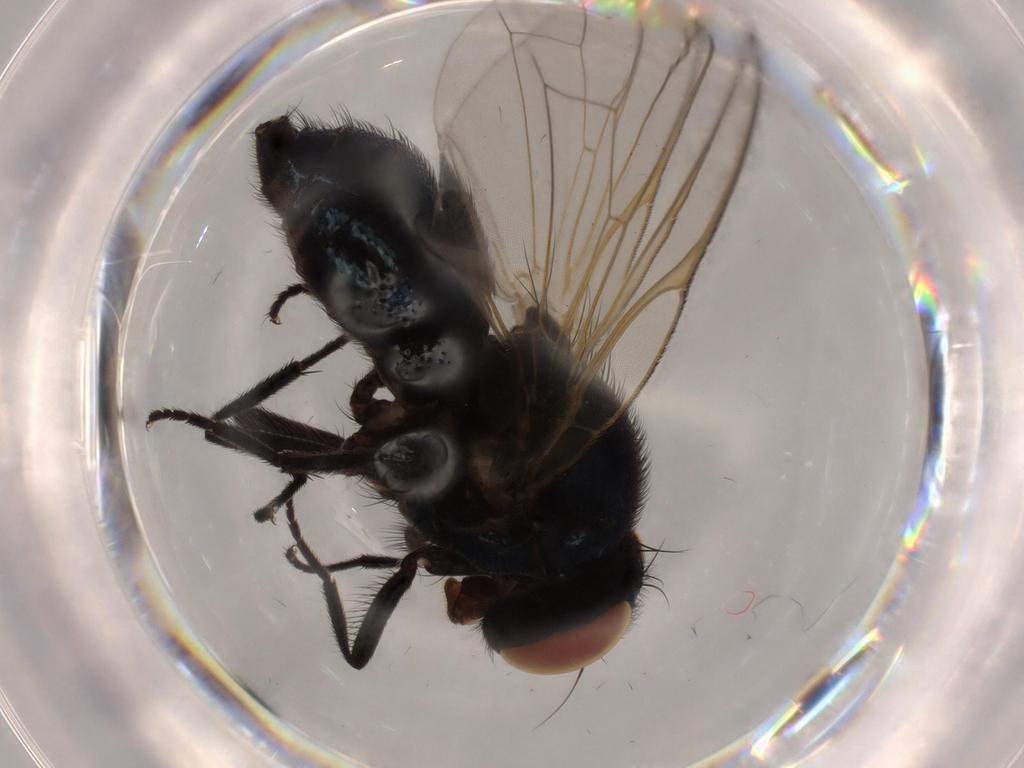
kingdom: Animalia
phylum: Arthropoda
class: Insecta
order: Diptera
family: Lonchaeidae
